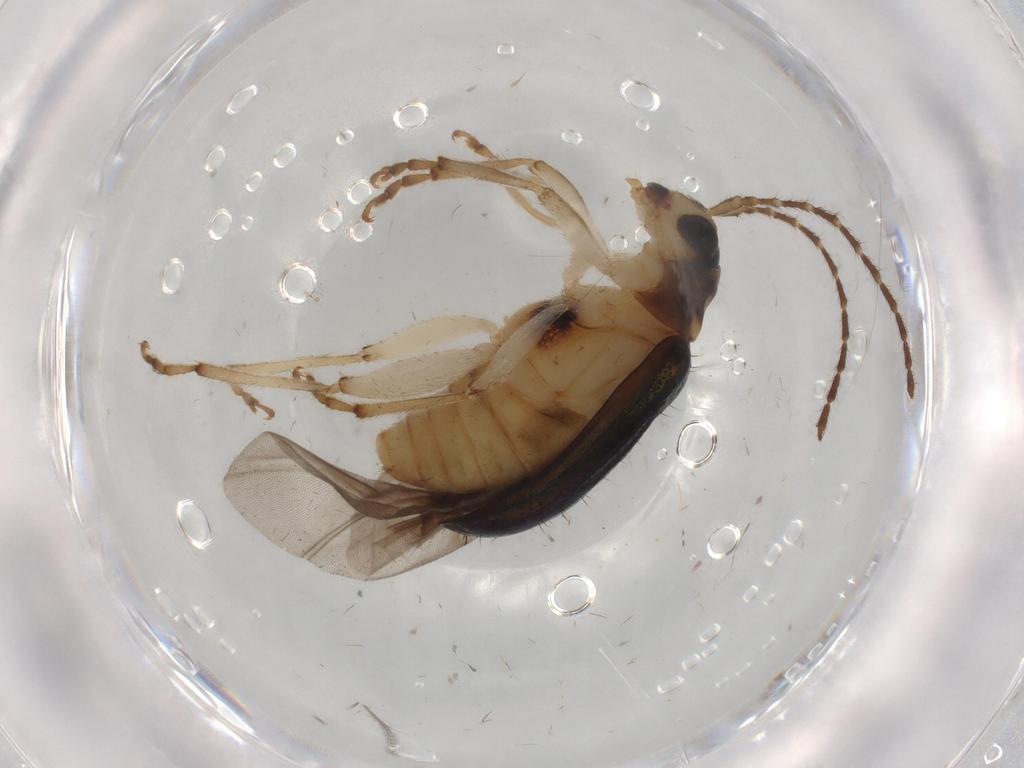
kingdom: Animalia
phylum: Arthropoda
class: Insecta
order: Coleoptera
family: Chrysomelidae
